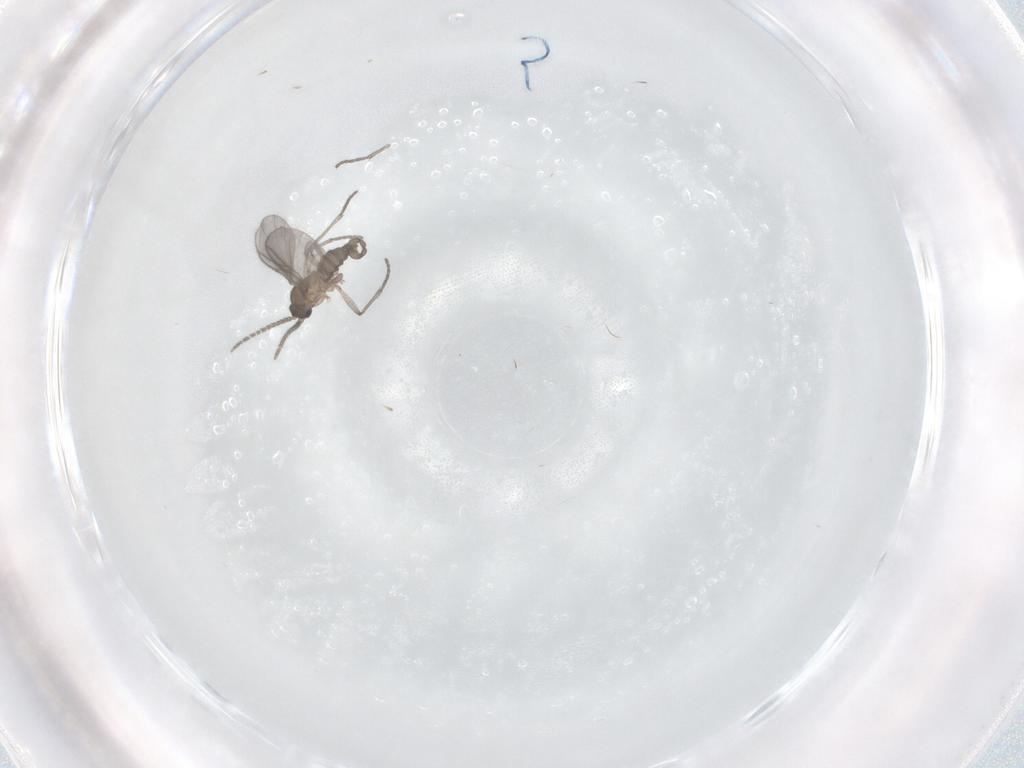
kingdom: Animalia
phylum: Arthropoda
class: Insecta
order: Diptera
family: Sciaridae
